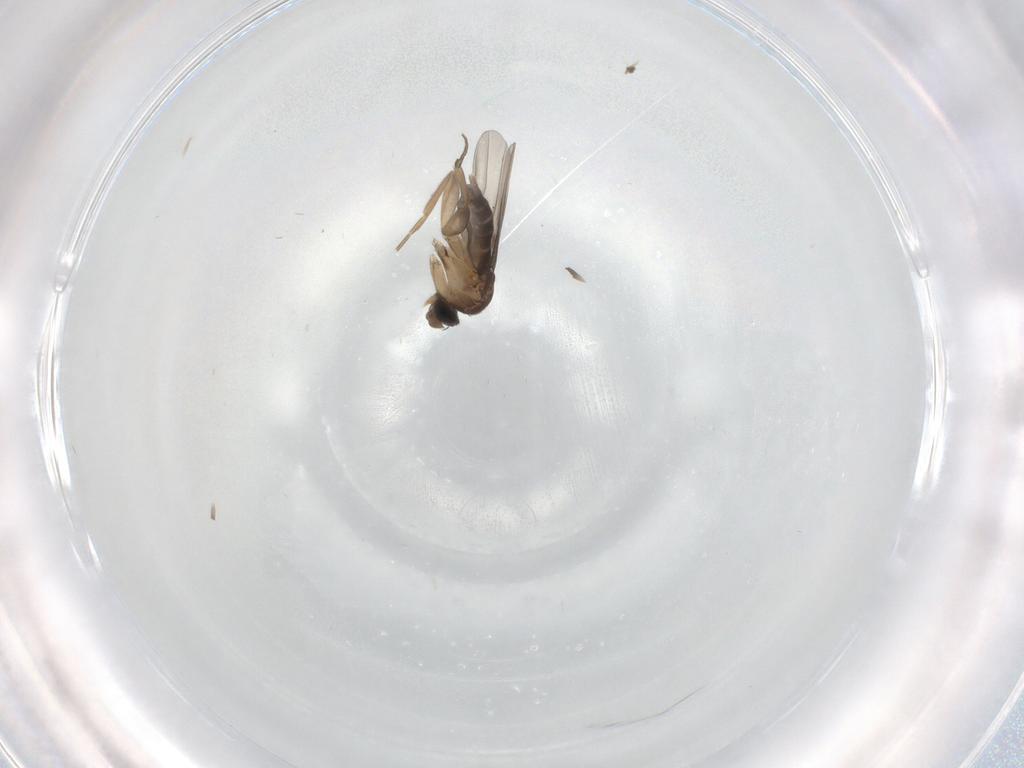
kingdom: Animalia
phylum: Arthropoda
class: Insecta
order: Diptera
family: Phoridae
